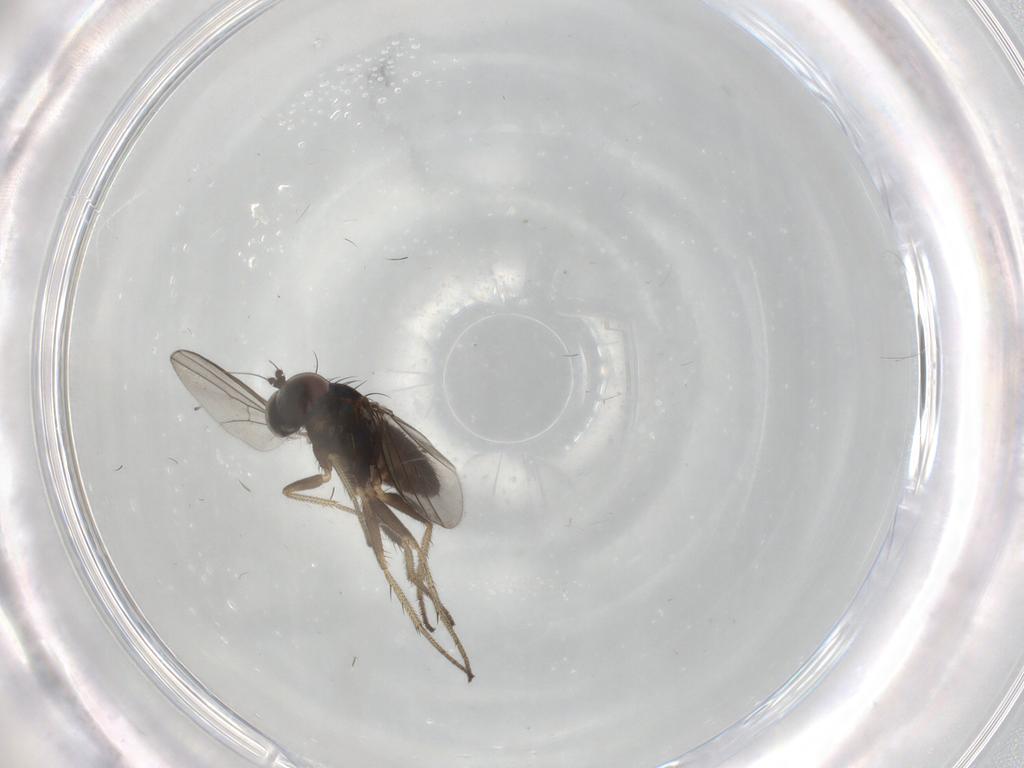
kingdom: Animalia
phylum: Arthropoda
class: Insecta
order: Diptera
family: Dolichopodidae
